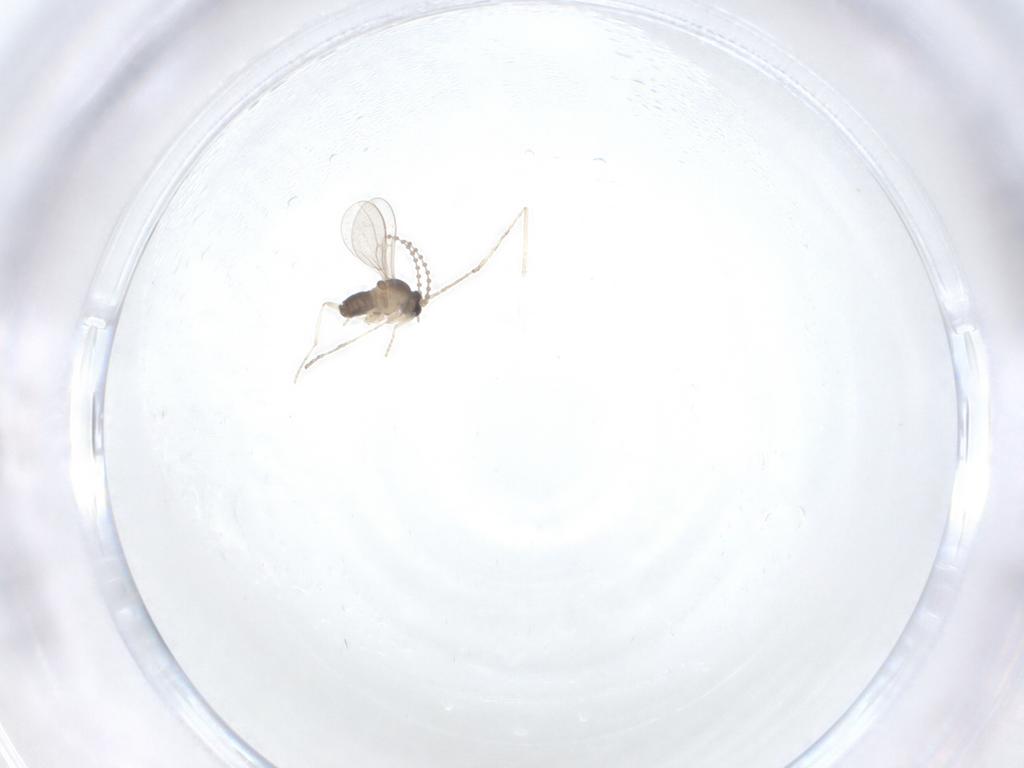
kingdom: Animalia
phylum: Arthropoda
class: Insecta
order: Diptera
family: Cecidomyiidae
